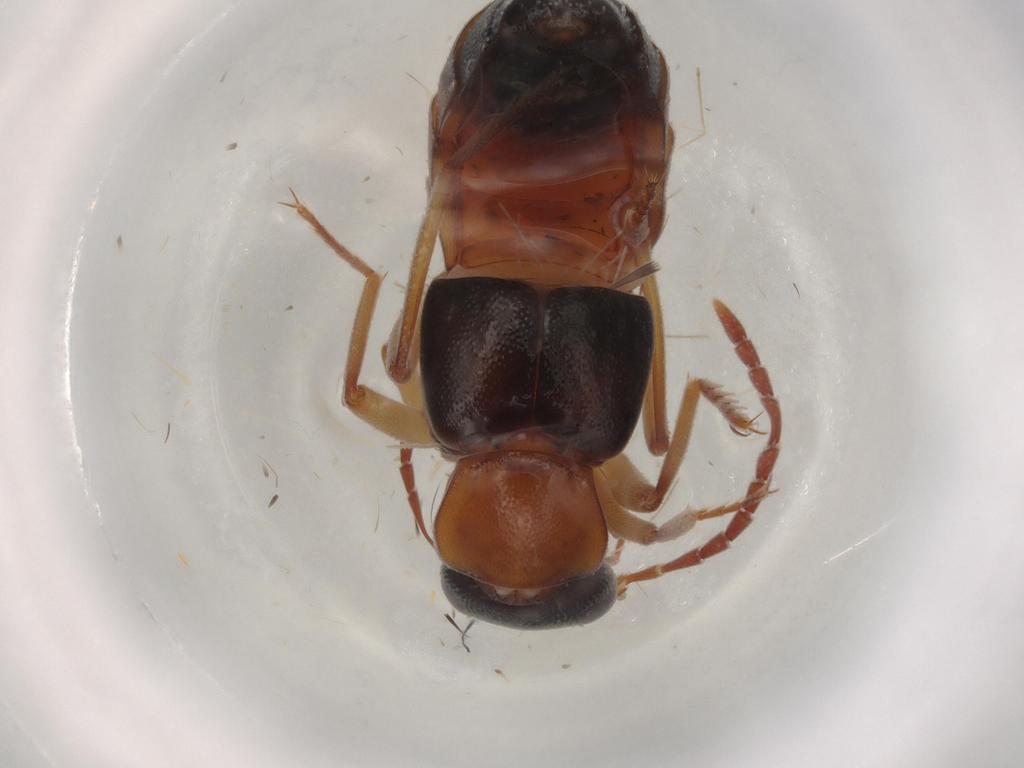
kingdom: Animalia
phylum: Arthropoda
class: Insecta
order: Coleoptera
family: Staphylinidae
